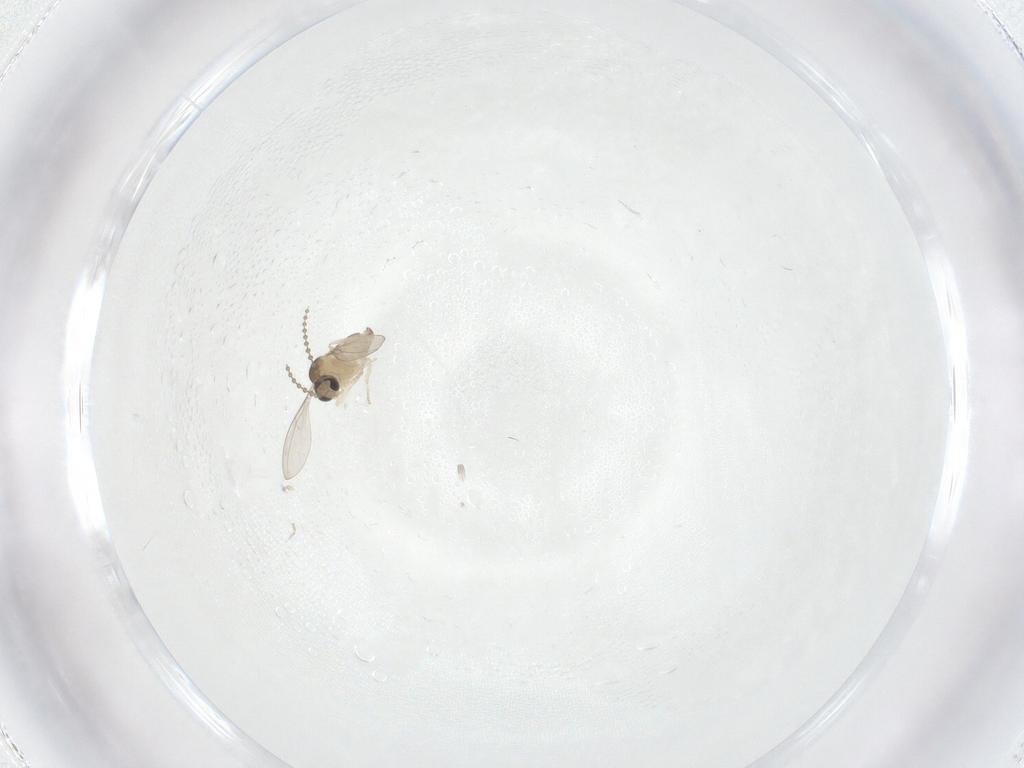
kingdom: Animalia
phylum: Arthropoda
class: Insecta
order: Diptera
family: Cecidomyiidae
